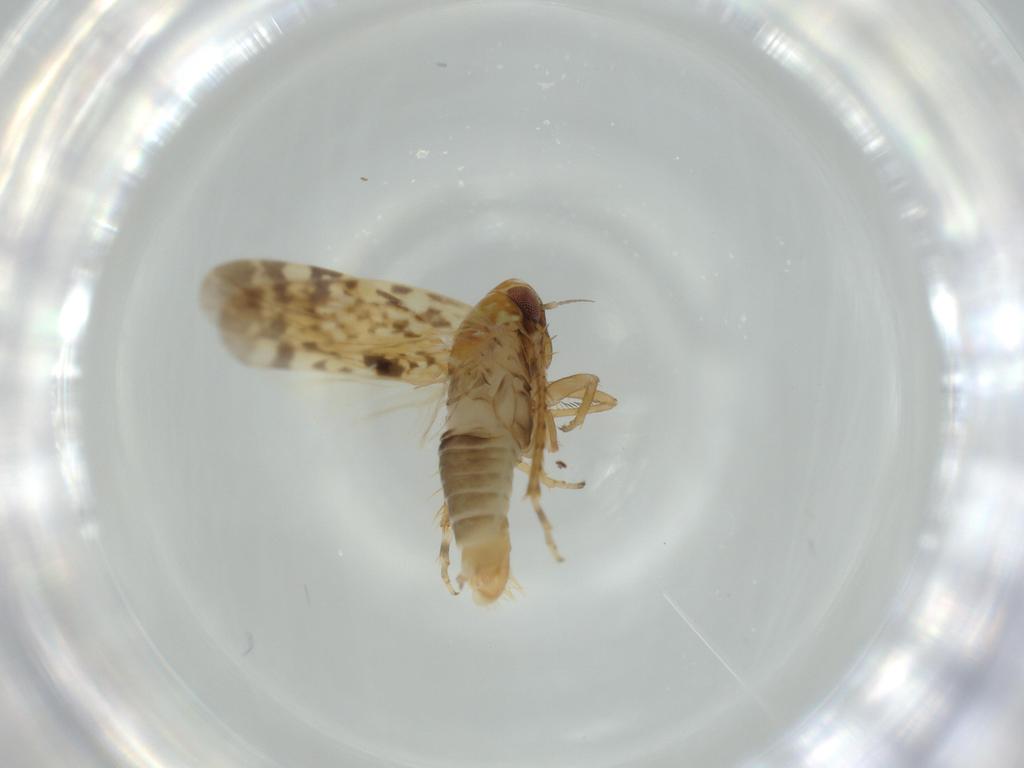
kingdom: Animalia
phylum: Arthropoda
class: Insecta
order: Hemiptera
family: Cicadellidae
